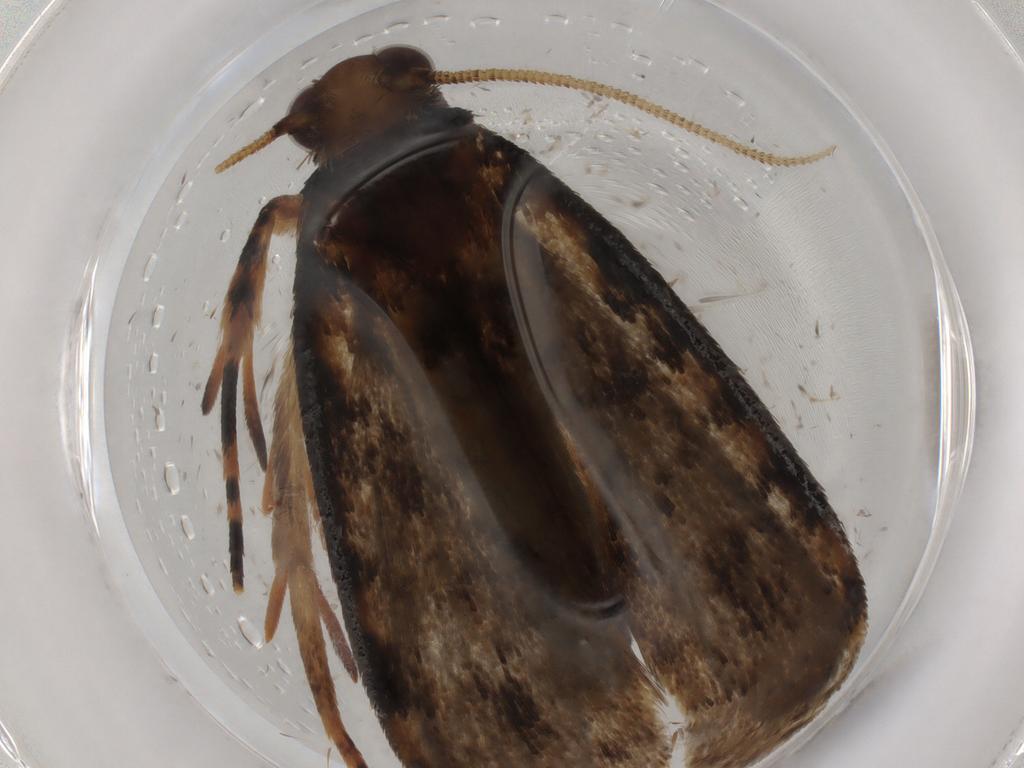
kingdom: Animalia
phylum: Arthropoda
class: Insecta
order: Lepidoptera
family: Tineidae
